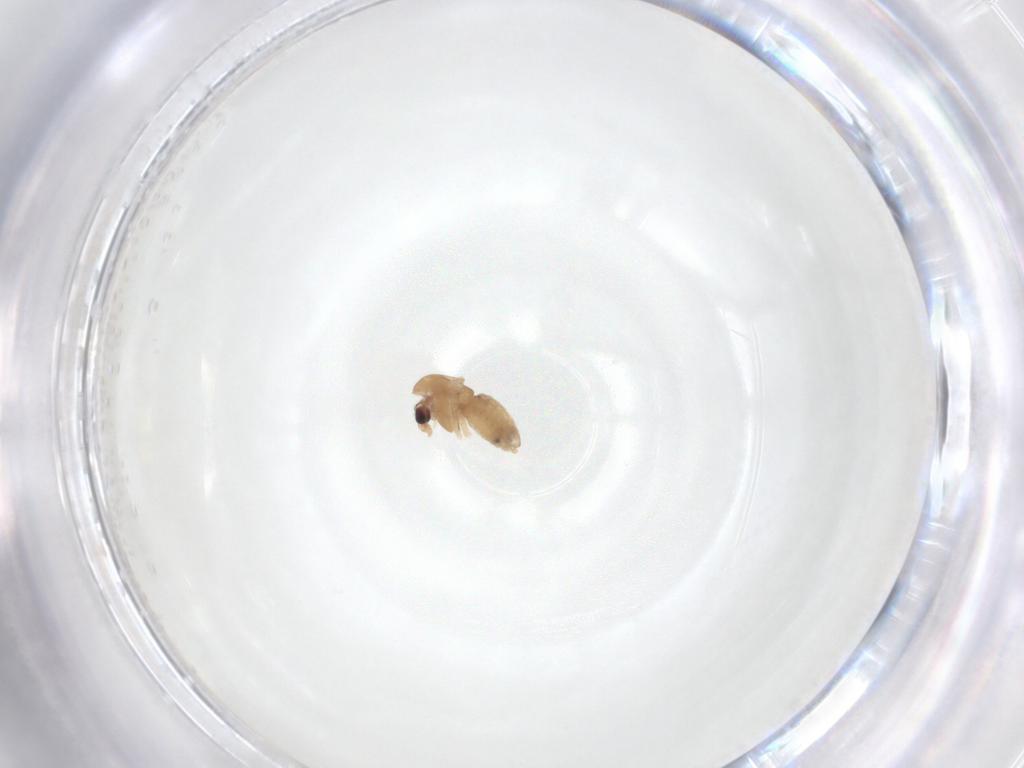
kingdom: Animalia
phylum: Arthropoda
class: Insecta
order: Diptera
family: Chironomidae
